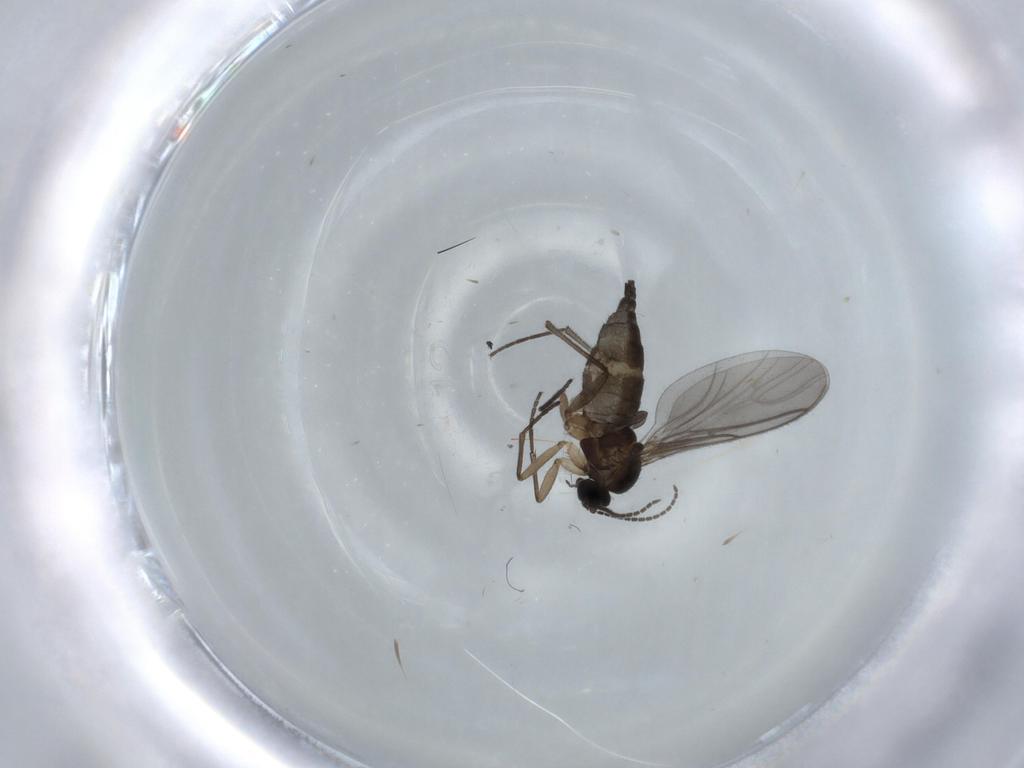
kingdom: Animalia
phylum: Arthropoda
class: Insecta
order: Diptera
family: Sciaridae
